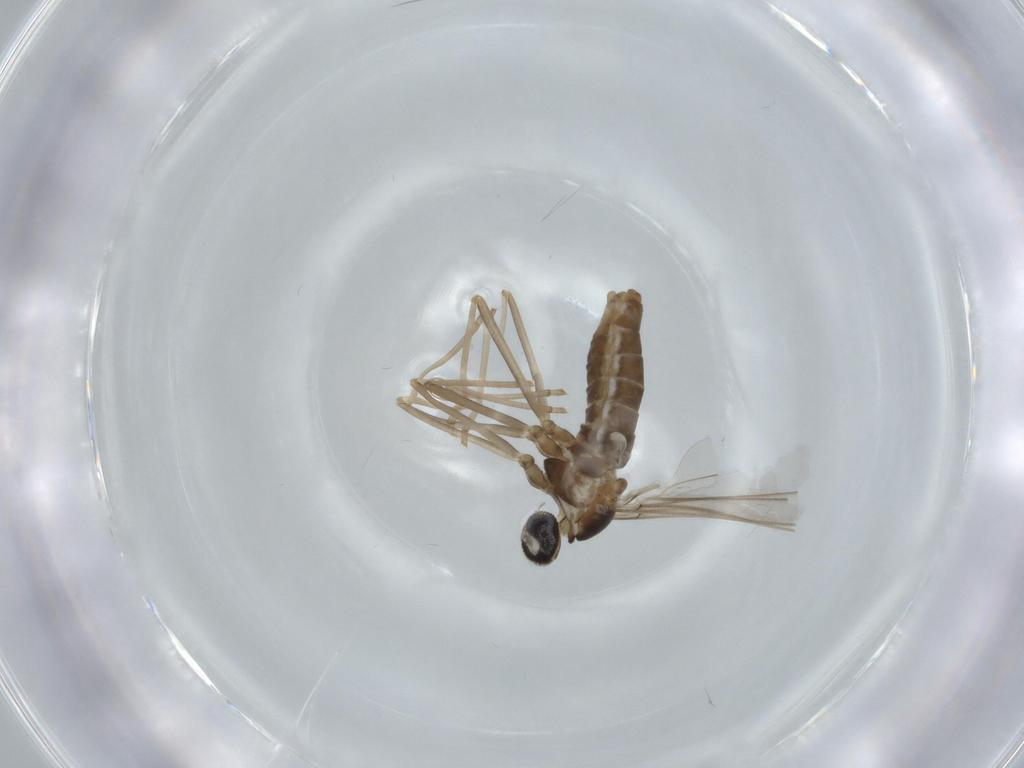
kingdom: Animalia
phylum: Arthropoda
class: Insecta
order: Diptera
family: Cecidomyiidae
